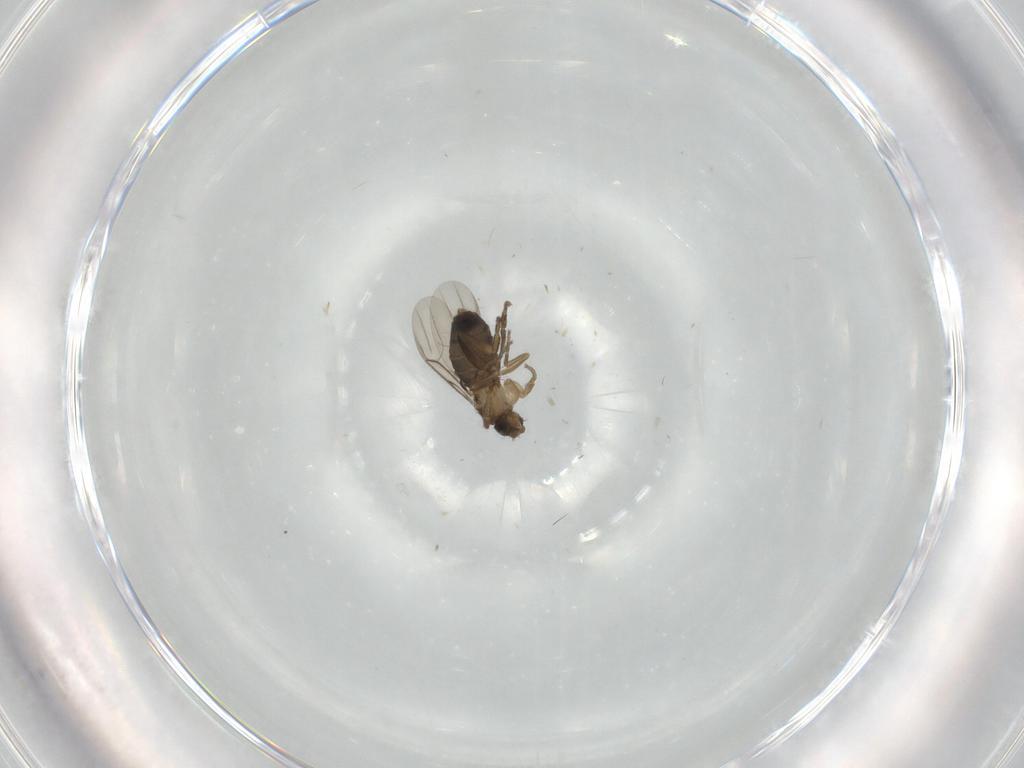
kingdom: Animalia
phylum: Arthropoda
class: Insecta
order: Diptera
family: Phoridae
